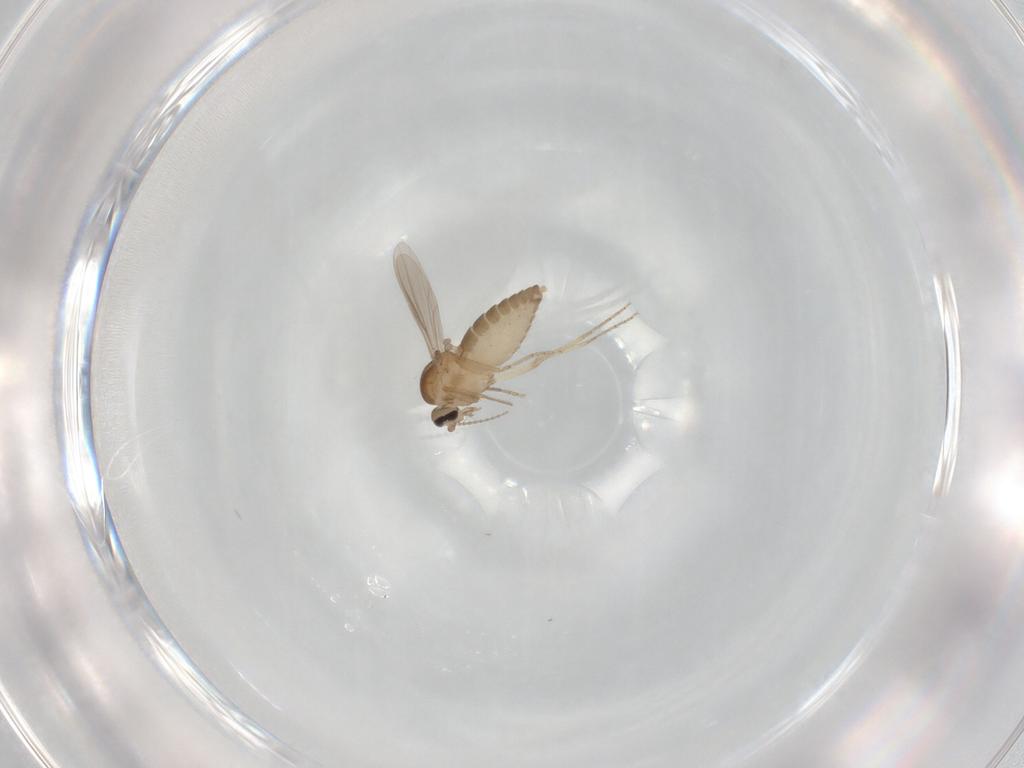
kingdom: Animalia
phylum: Arthropoda
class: Insecta
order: Diptera
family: Ceratopogonidae
